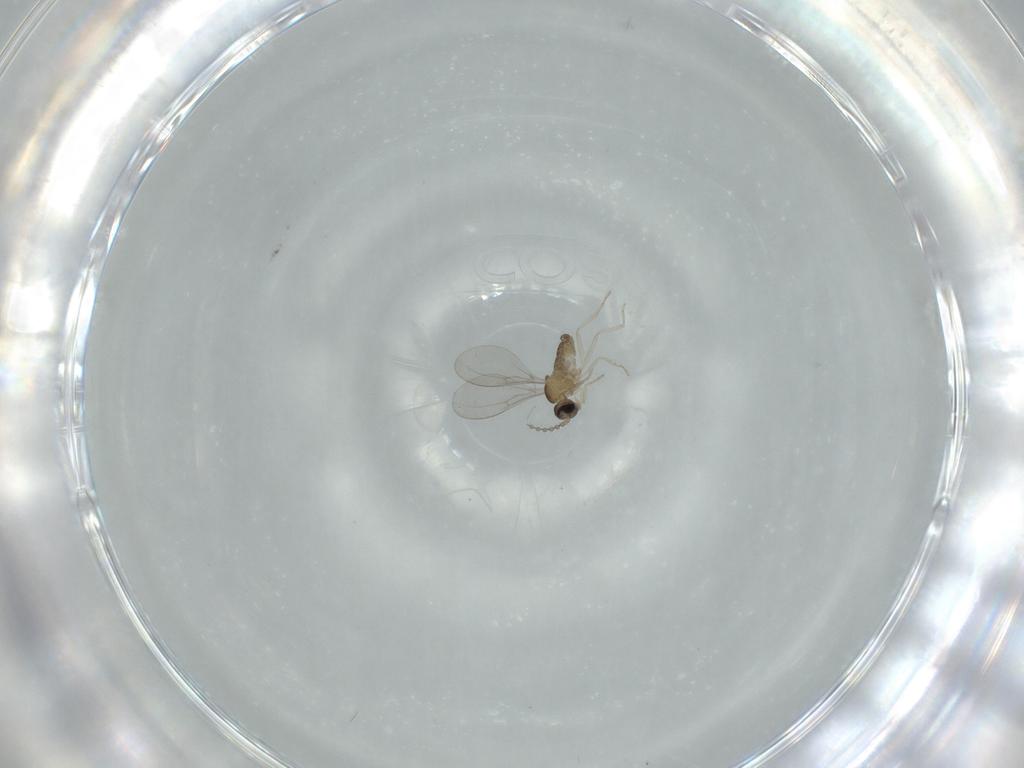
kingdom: Animalia
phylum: Arthropoda
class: Insecta
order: Diptera
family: Cecidomyiidae
